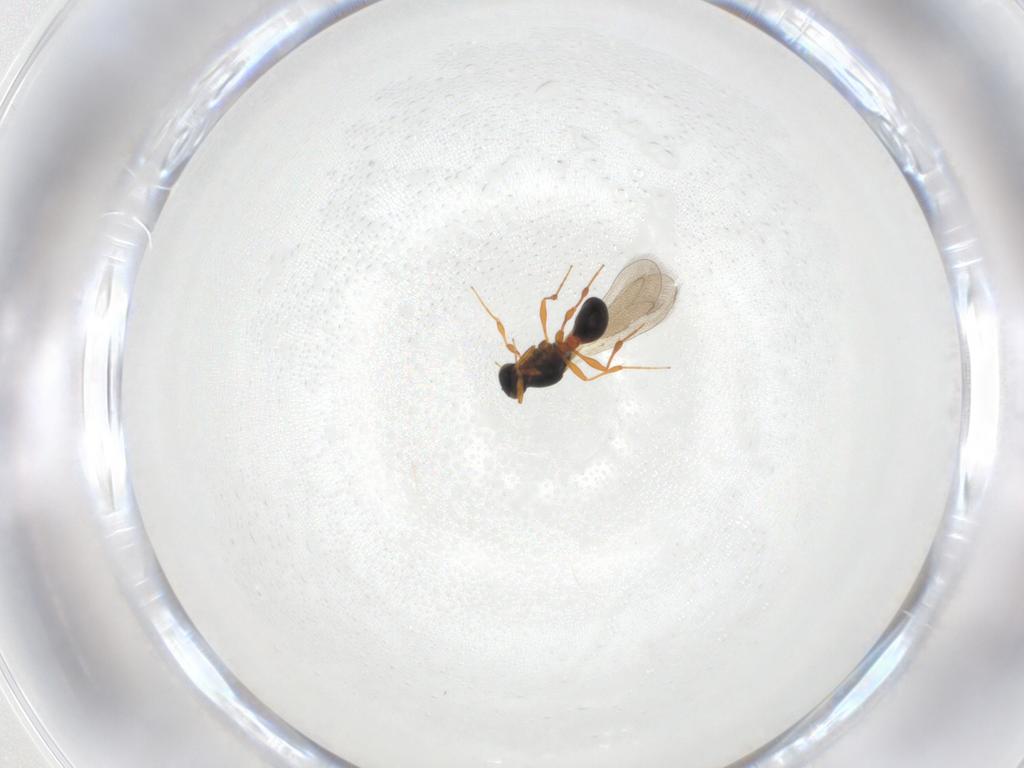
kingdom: Animalia
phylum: Arthropoda
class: Insecta
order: Hymenoptera
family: Platygastridae
